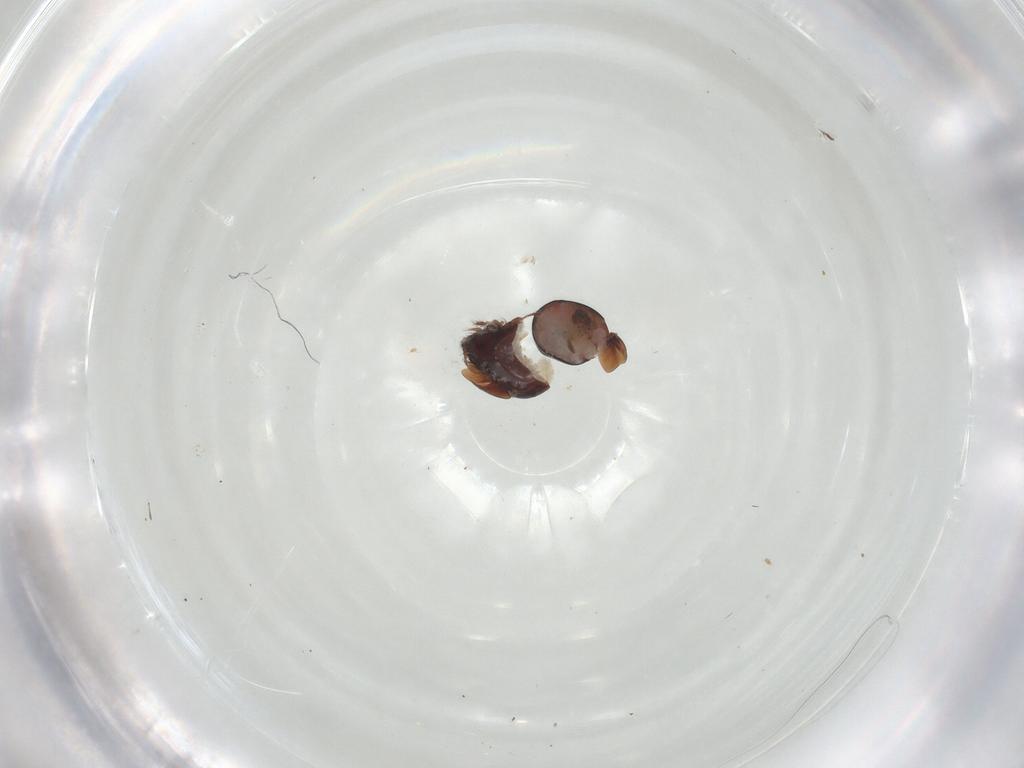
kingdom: Animalia
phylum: Arthropoda
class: Arachnida
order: Sarcoptiformes
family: Galumnidae
